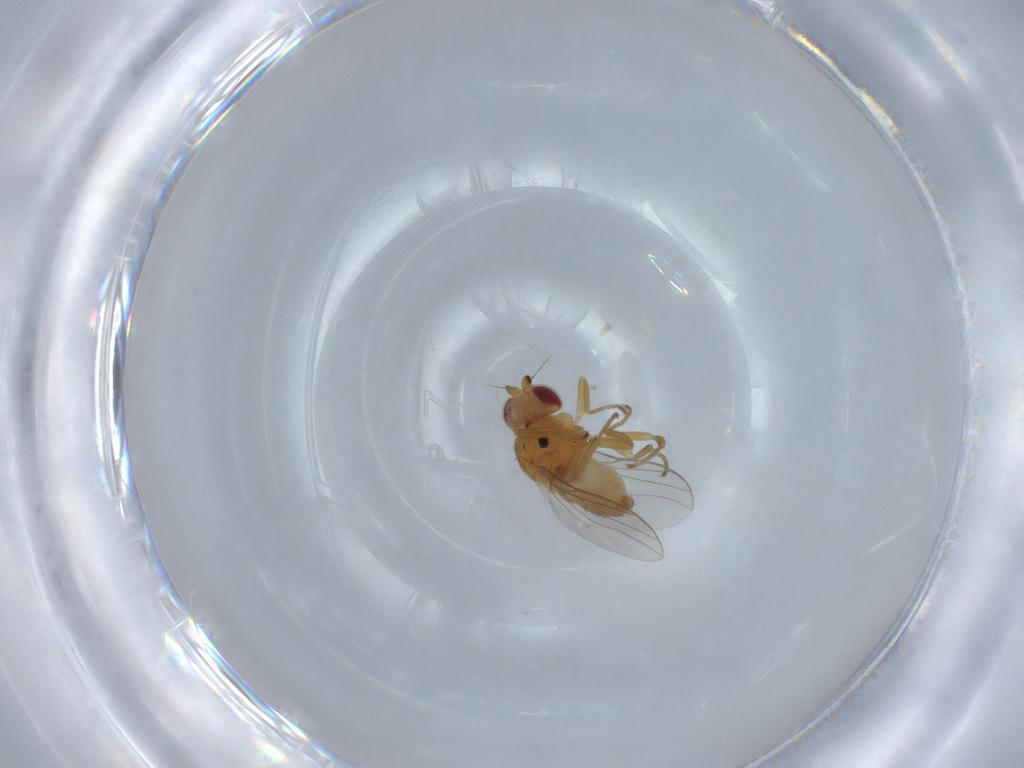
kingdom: Animalia
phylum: Arthropoda
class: Insecta
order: Diptera
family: Chloropidae
